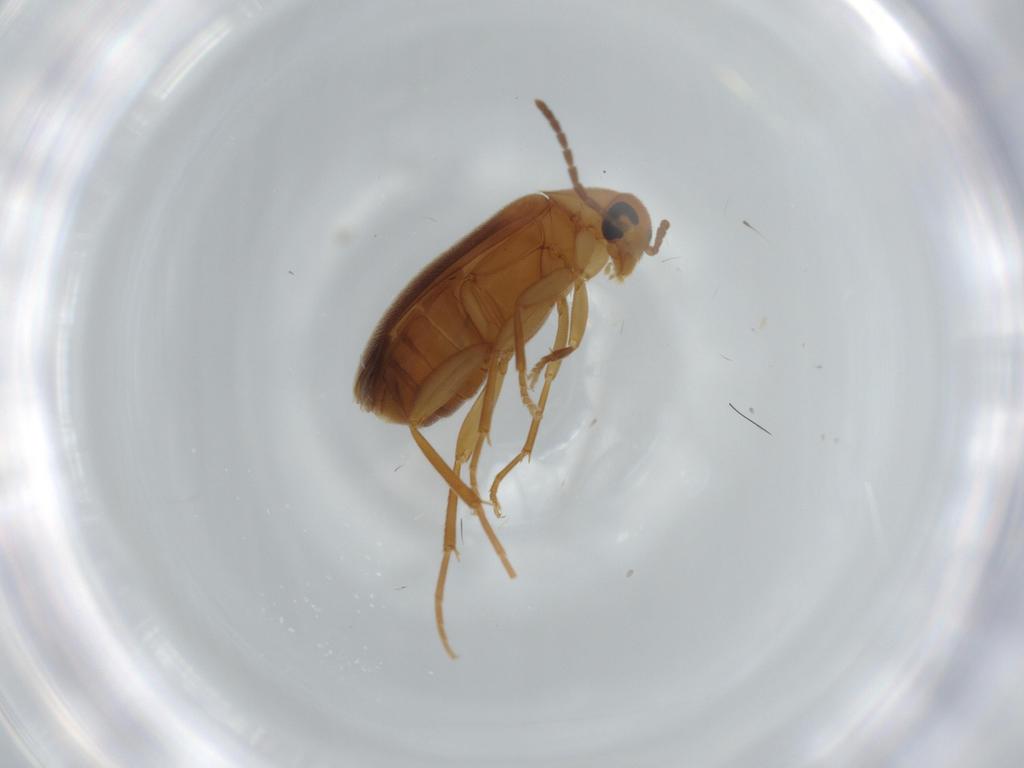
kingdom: Animalia
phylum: Arthropoda
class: Insecta
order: Coleoptera
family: Scraptiidae
